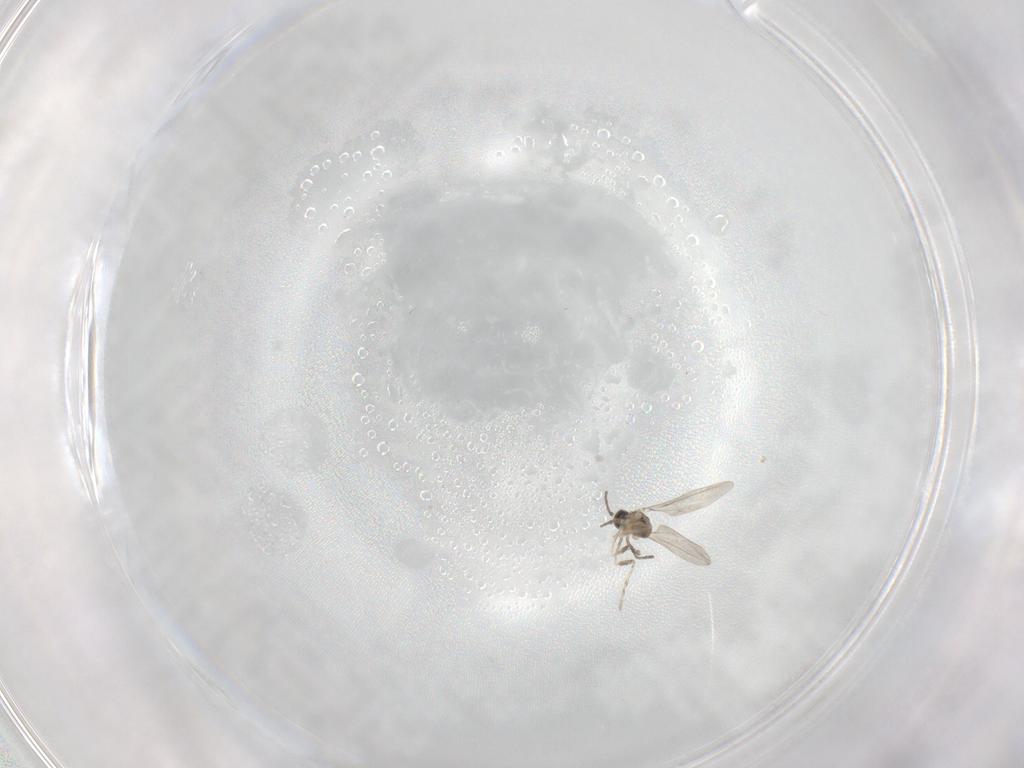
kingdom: Animalia
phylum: Arthropoda
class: Insecta
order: Diptera
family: Cecidomyiidae
